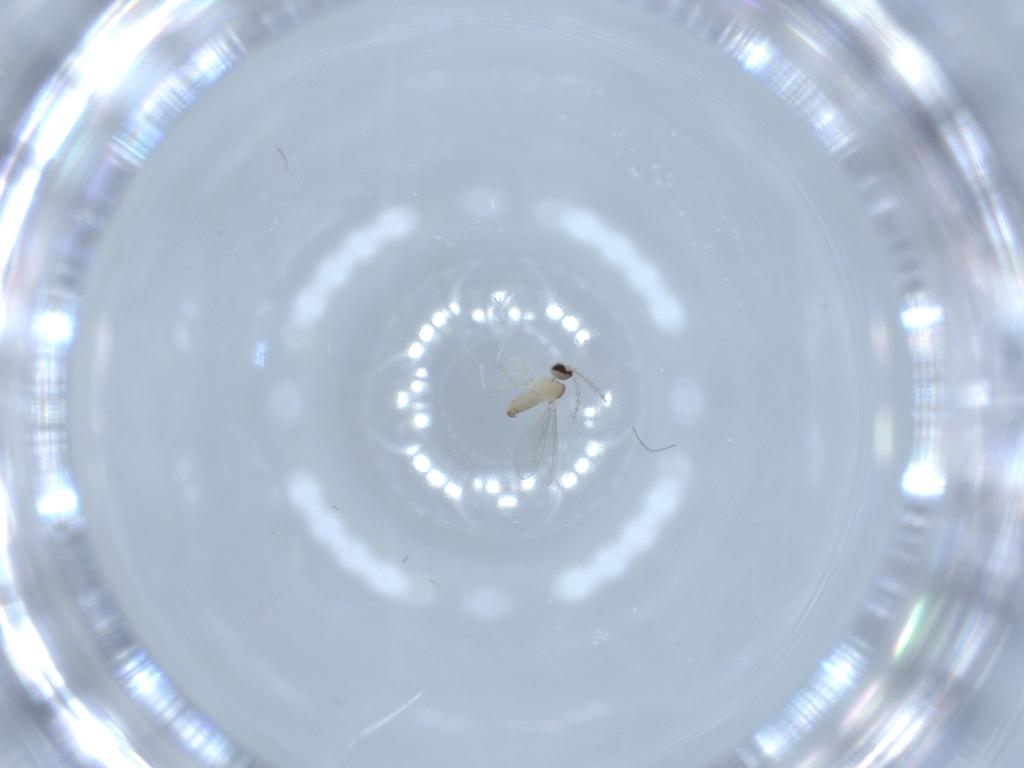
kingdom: Animalia
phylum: Arthropoda
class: Insecta
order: Diptera
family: Cecidomyiidae
